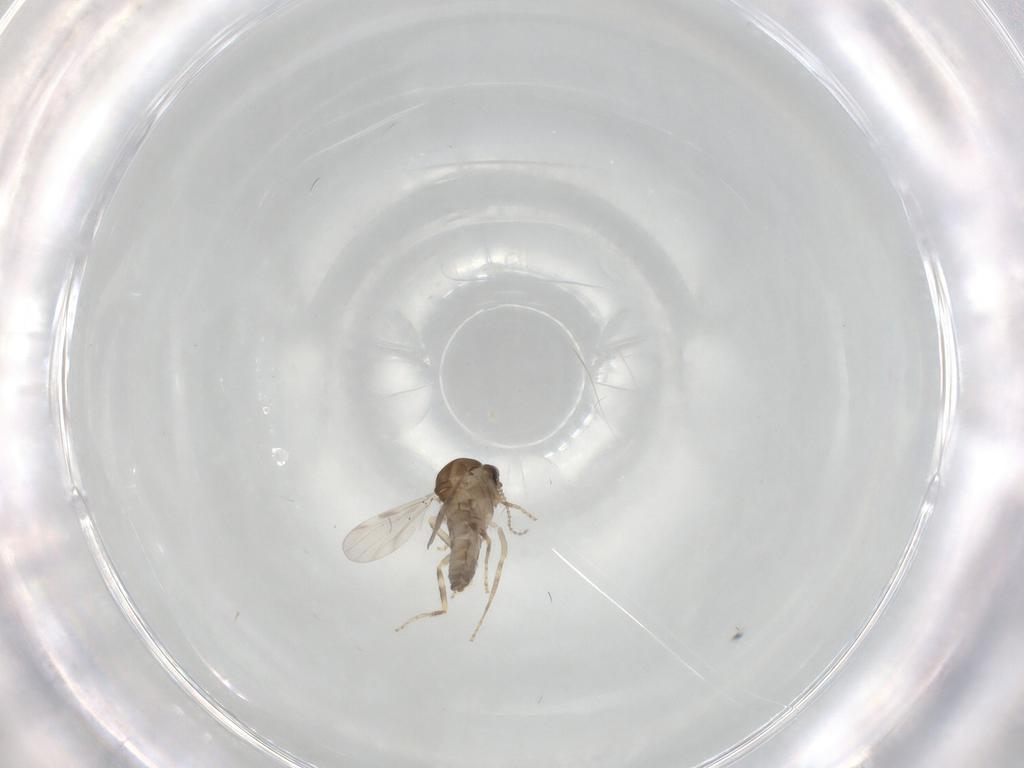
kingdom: Animalia
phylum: Arthropoda
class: Insecta
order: Diptera
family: Ceratopogonidae
